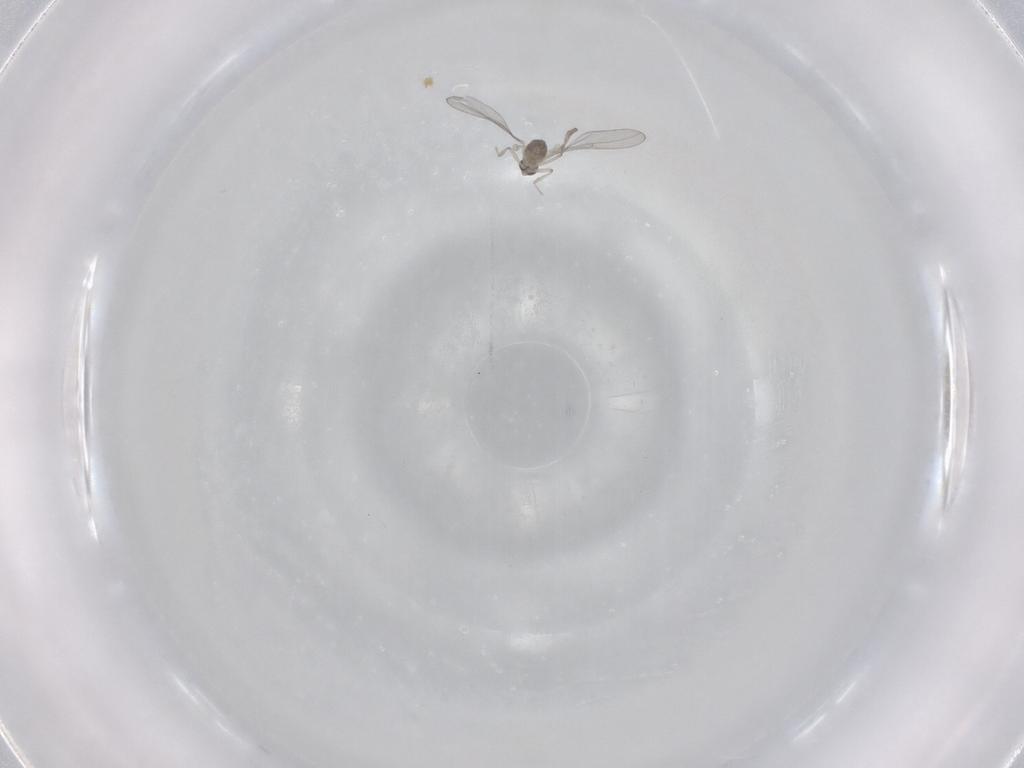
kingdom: Animalia
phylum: Arthropoda
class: Insecta
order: Diptera
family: Cecidomyiidae
